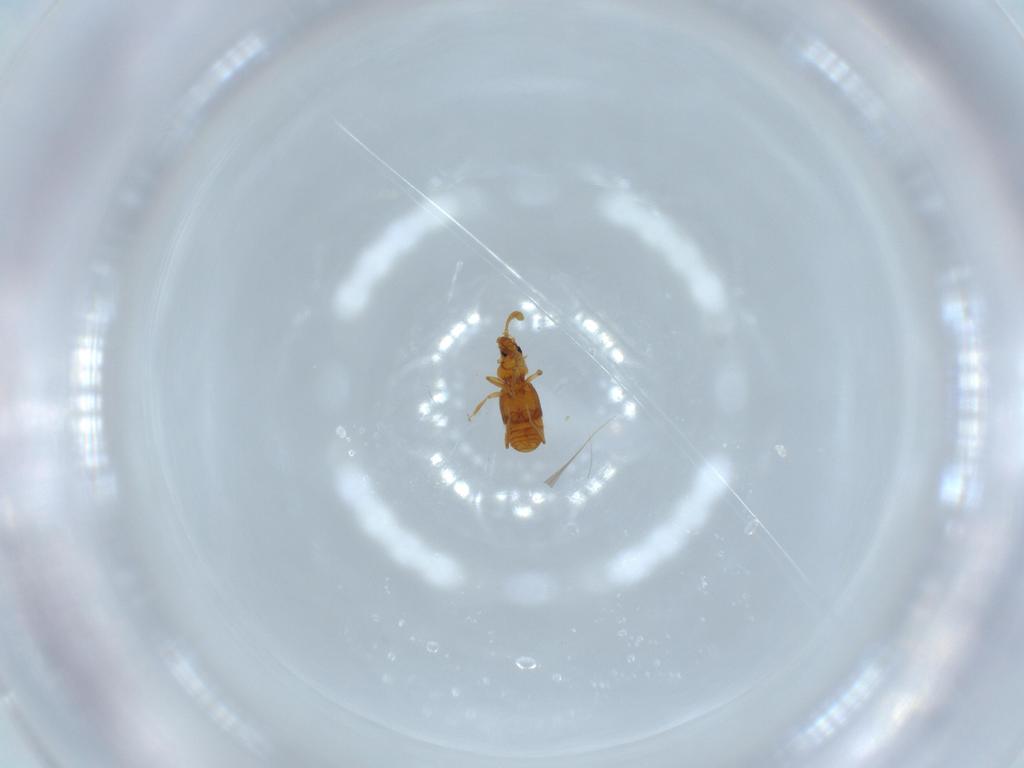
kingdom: Animalia
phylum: Arthropoda
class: Insecta
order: Coleoptera
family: Staphylinidae
